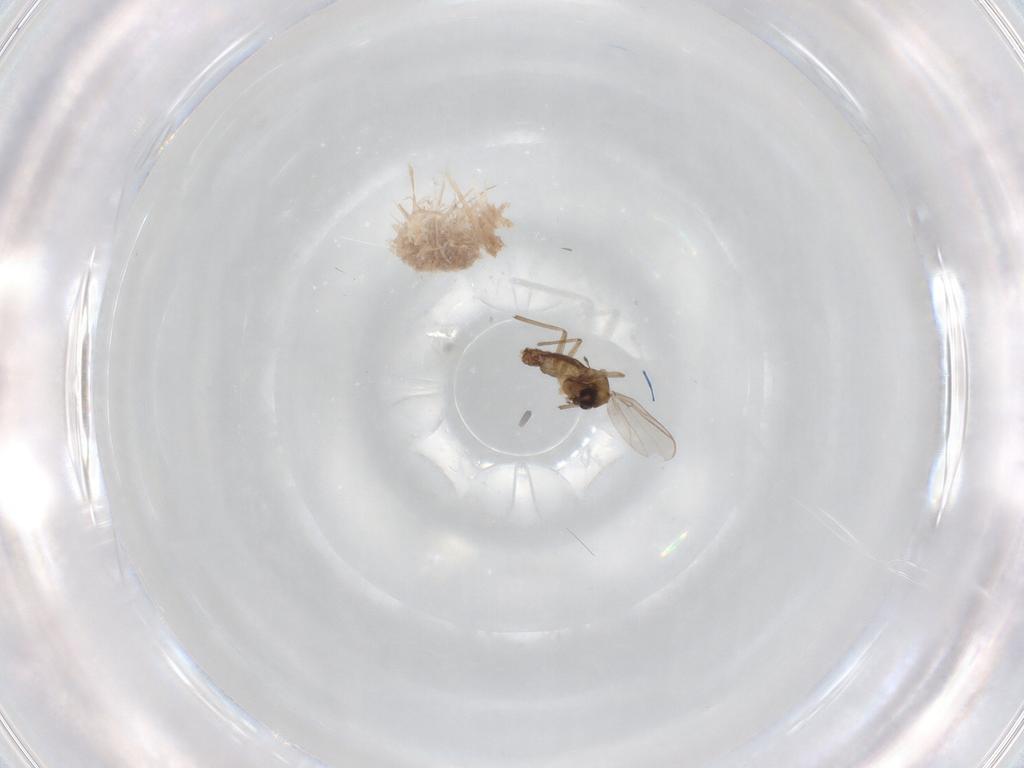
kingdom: Animalia
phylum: Arthropoda
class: Insecta
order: Diptera
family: Chironomidae
